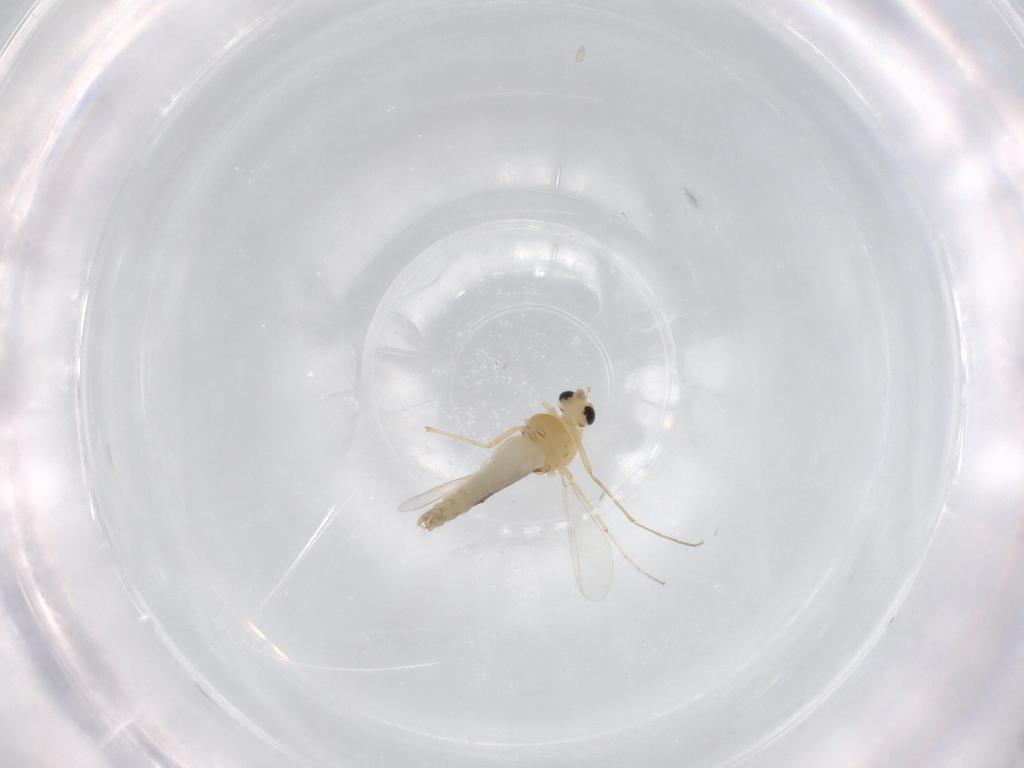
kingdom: Animalia
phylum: Arthropoda
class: Insecta
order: Diptera
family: Chironomidae
